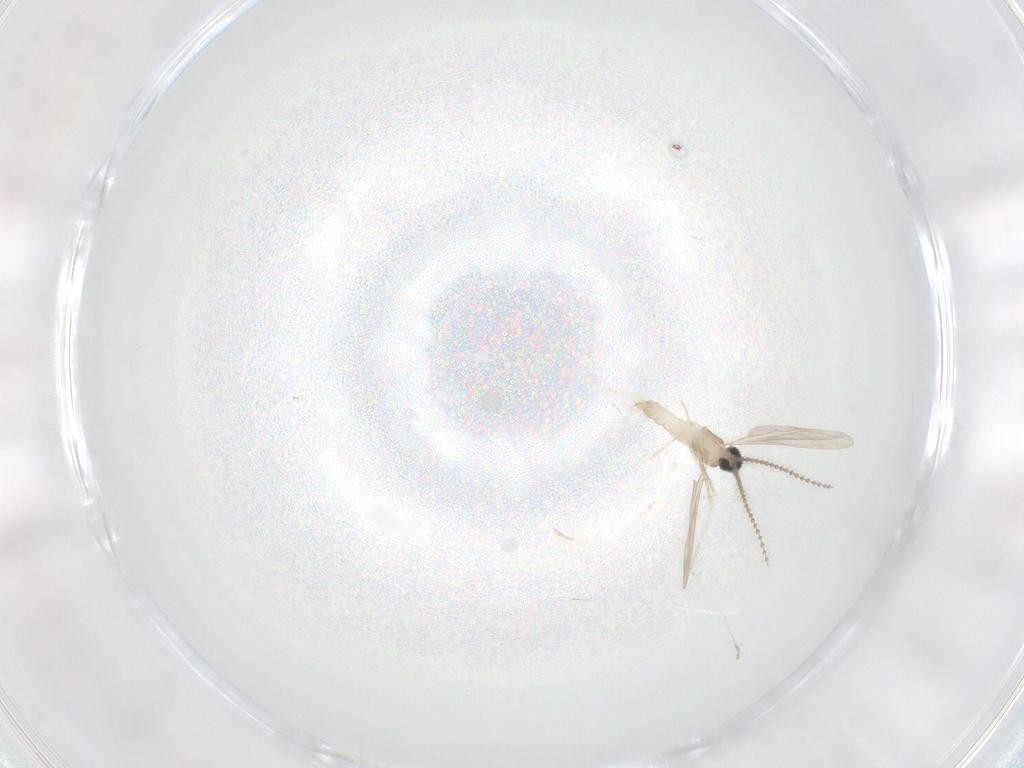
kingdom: Animalia
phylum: Arthropoda
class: Insecta
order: Diptera
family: Cecidomyiidae
